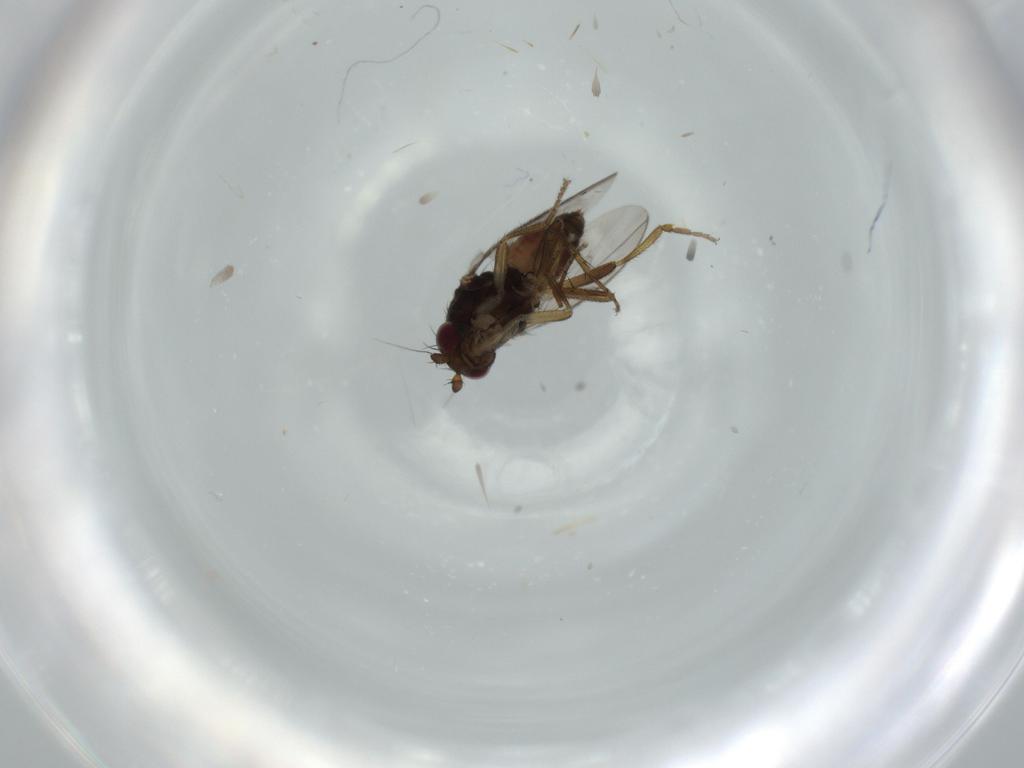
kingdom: Animalia
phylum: Arthropoda
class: Insecta
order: Diptera
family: Sphaeroceridae
